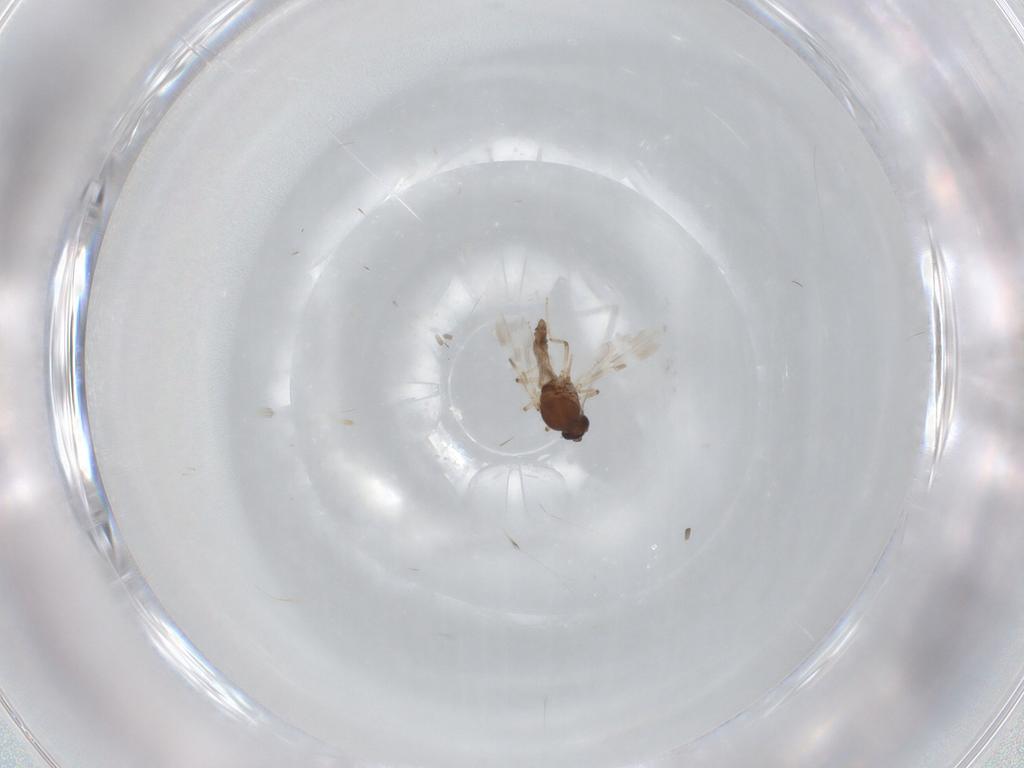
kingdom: Animalia
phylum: Arthropoda
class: Insecta
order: Diptera
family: Ceratopogonidae
